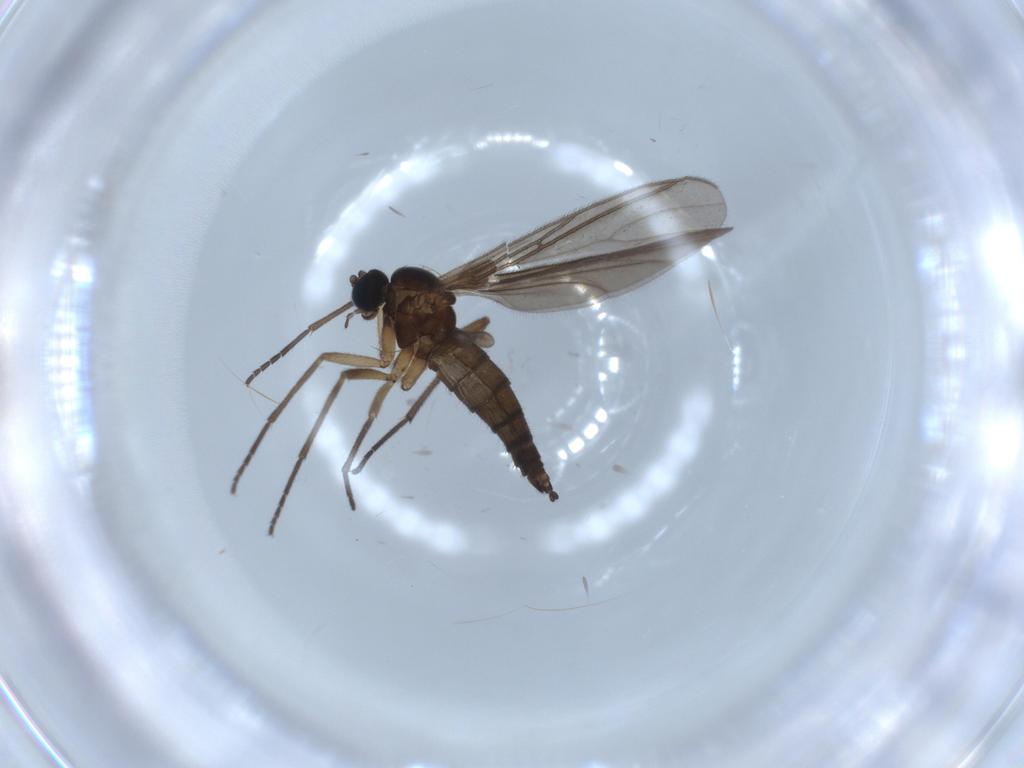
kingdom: Animalia
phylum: Arthropoda
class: Insecta
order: Diptera
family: Sciaridae
